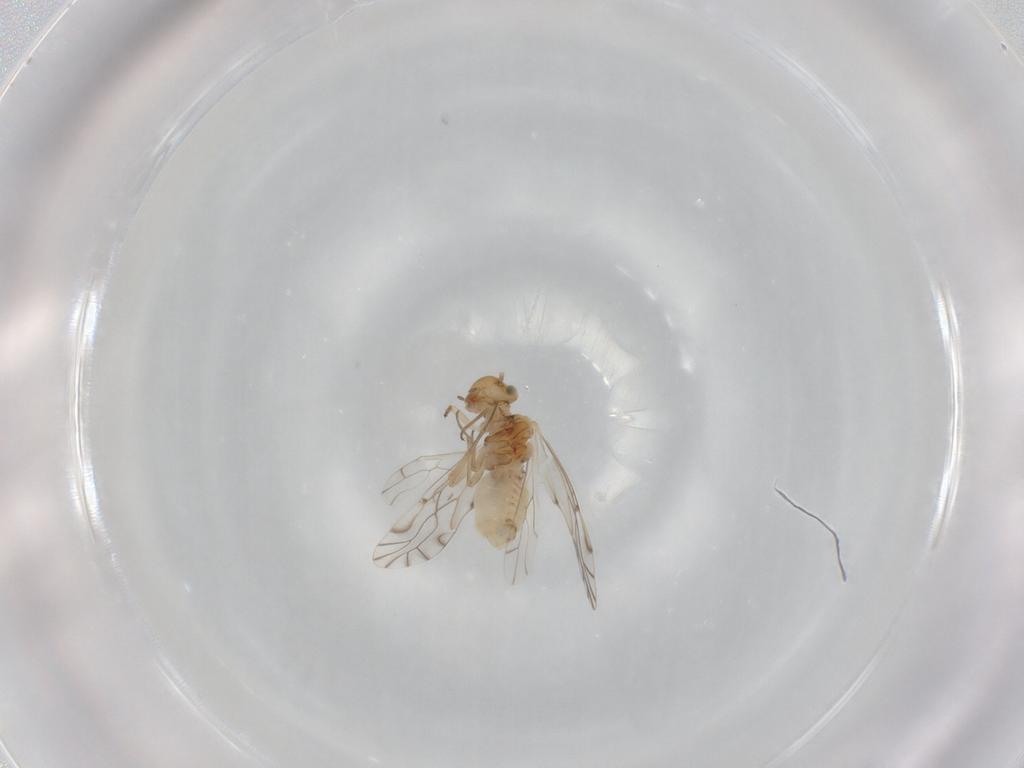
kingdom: Animalia
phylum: Arthropoda
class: Insecta
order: Psocodea
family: Lachesillidae
